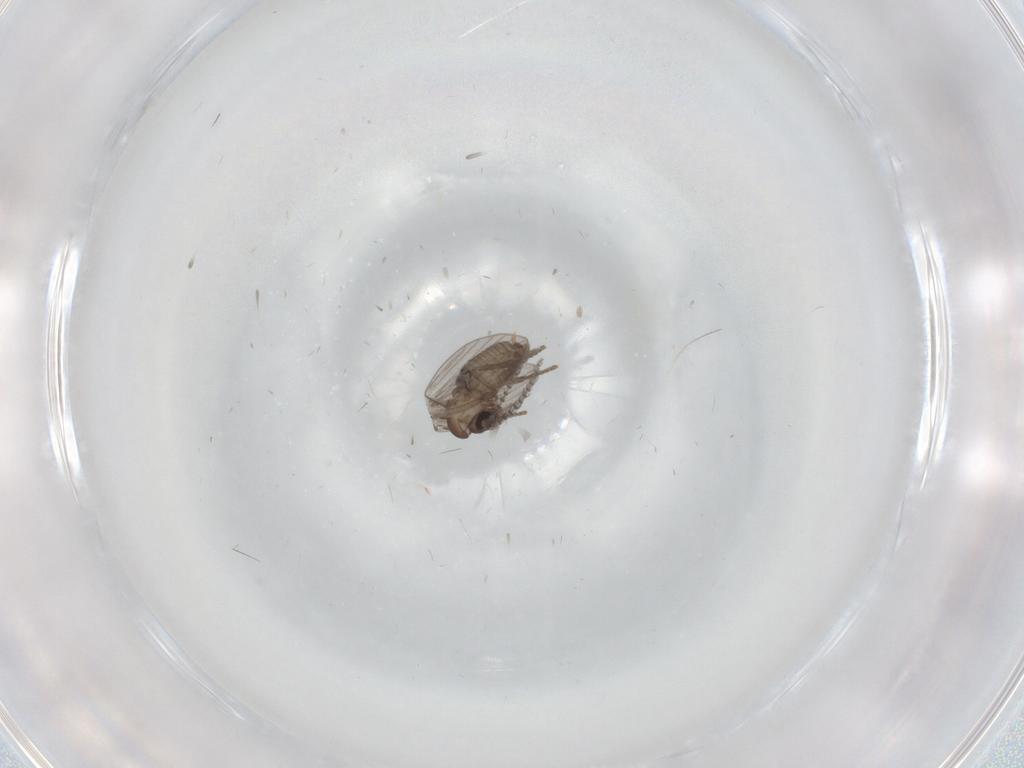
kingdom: Animalia
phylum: Arthropoda
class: Insecta
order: Diptera
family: Psychodidae
